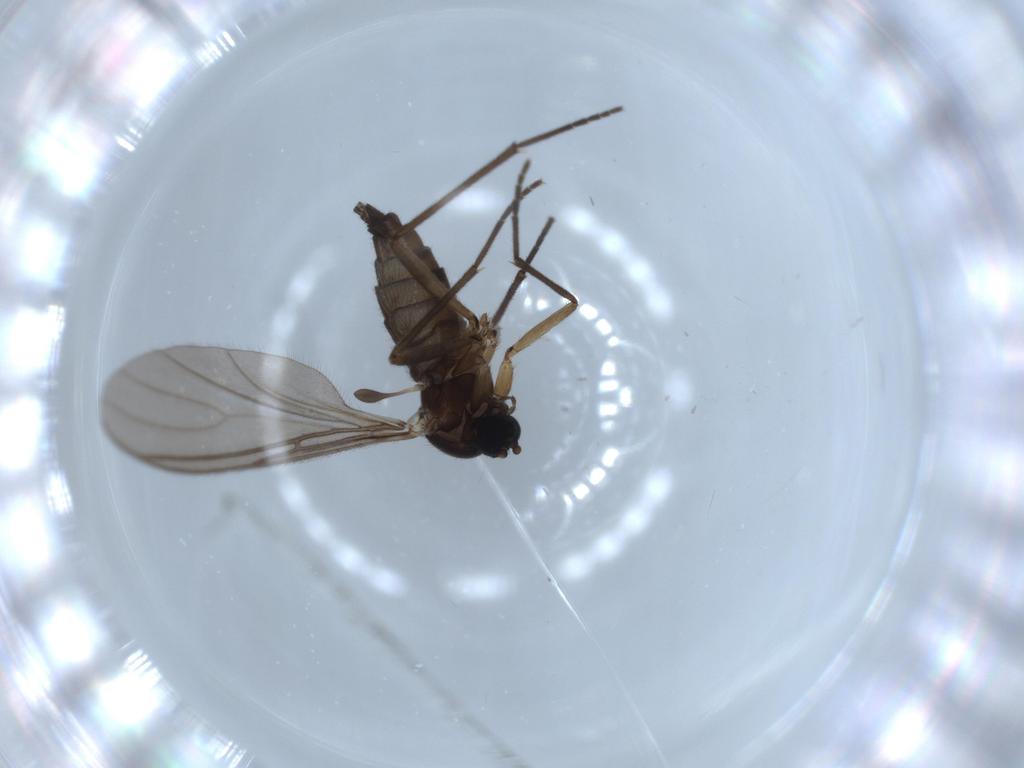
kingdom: Animalia
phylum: Arthropoda
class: Insecta
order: Diptera
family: Sciaridae
